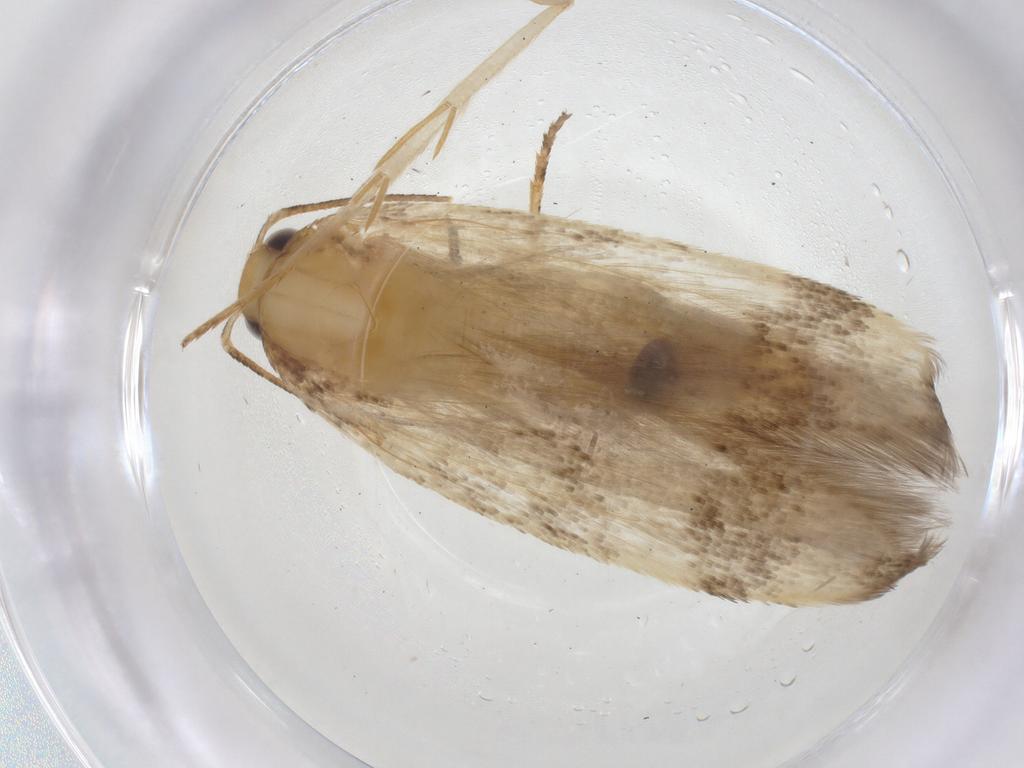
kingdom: Animalia
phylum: Arthropoda
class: Insecta
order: Lepidoptera
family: Gelechiidae
